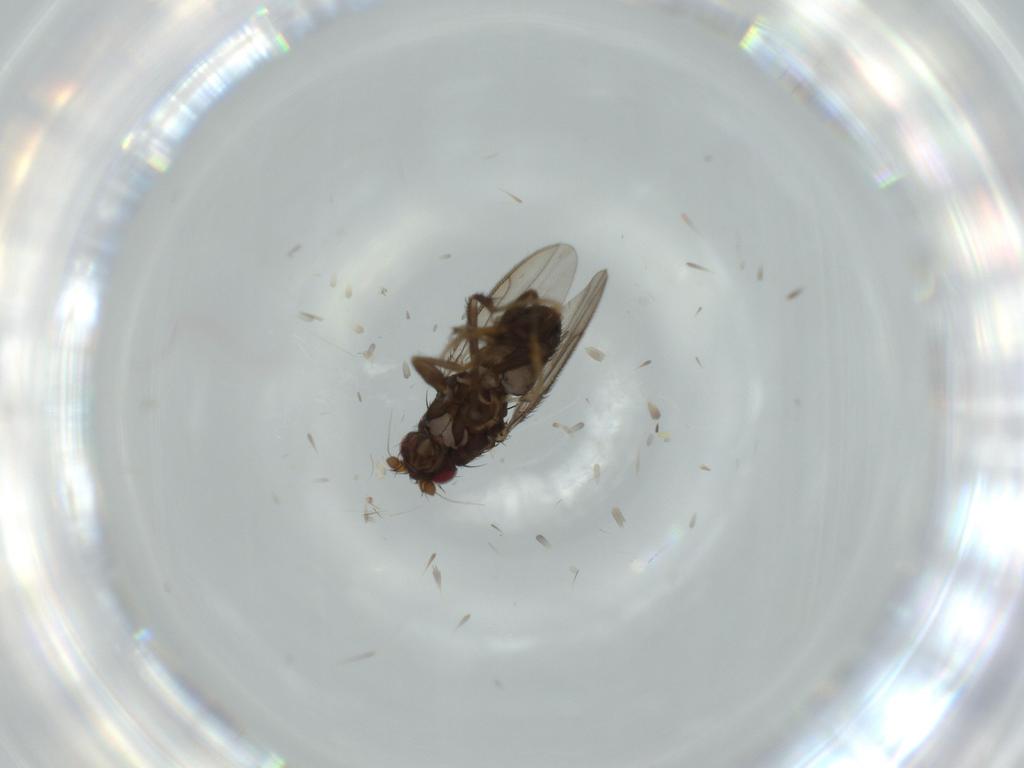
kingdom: Animalia
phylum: Arthropoda
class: Insecta
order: Diptera
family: Sphaeroceridae
